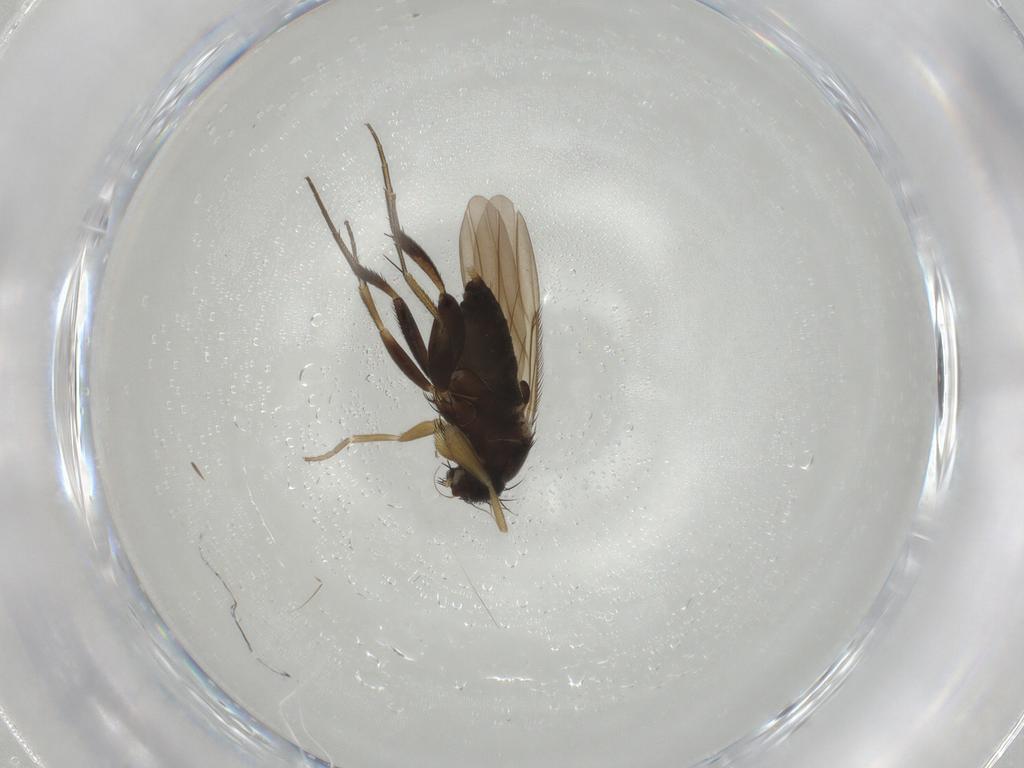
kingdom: Animalia
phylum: Arthropoda
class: Insecta
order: Diptera
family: Phoridae
